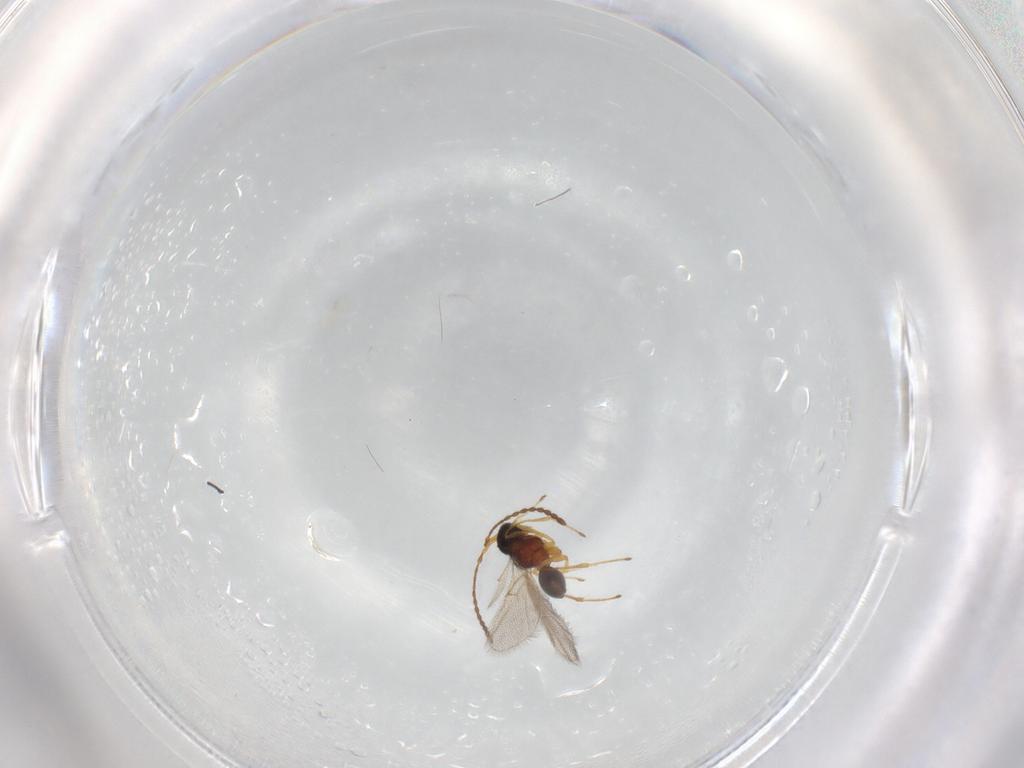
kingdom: Animalia
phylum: Arthropoda
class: Insecta
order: Hymenoptera
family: Diapriidae
